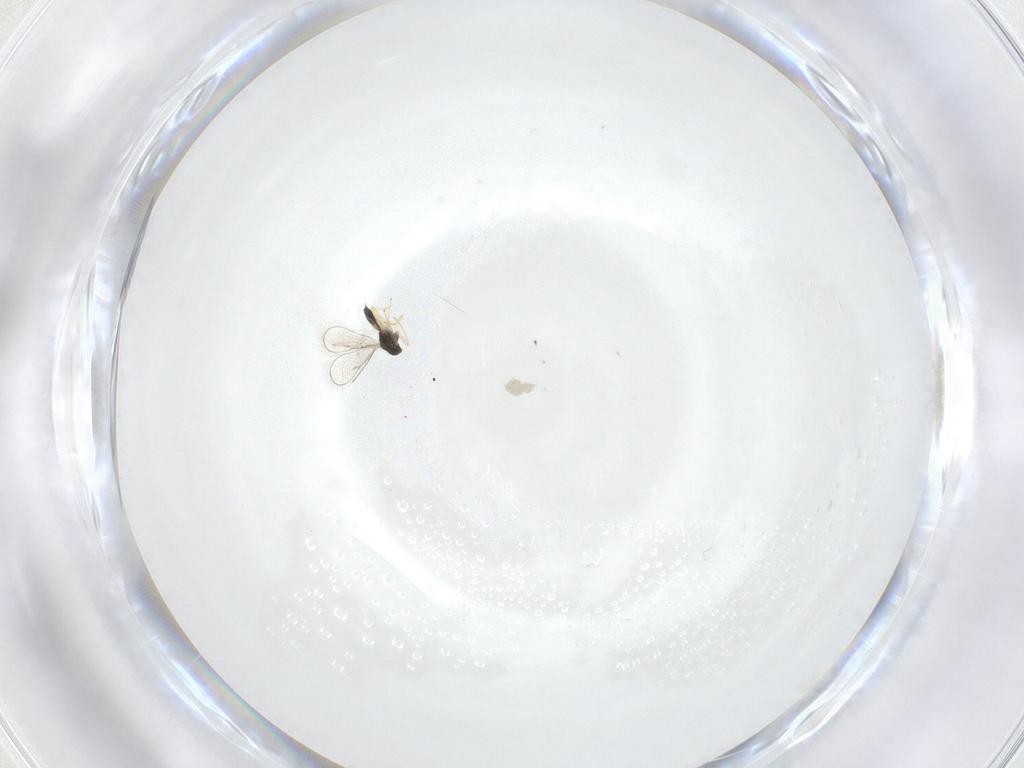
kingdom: Animalia
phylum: Arthropoda
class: Insecta
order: Hymenoptera
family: Eulophidae
